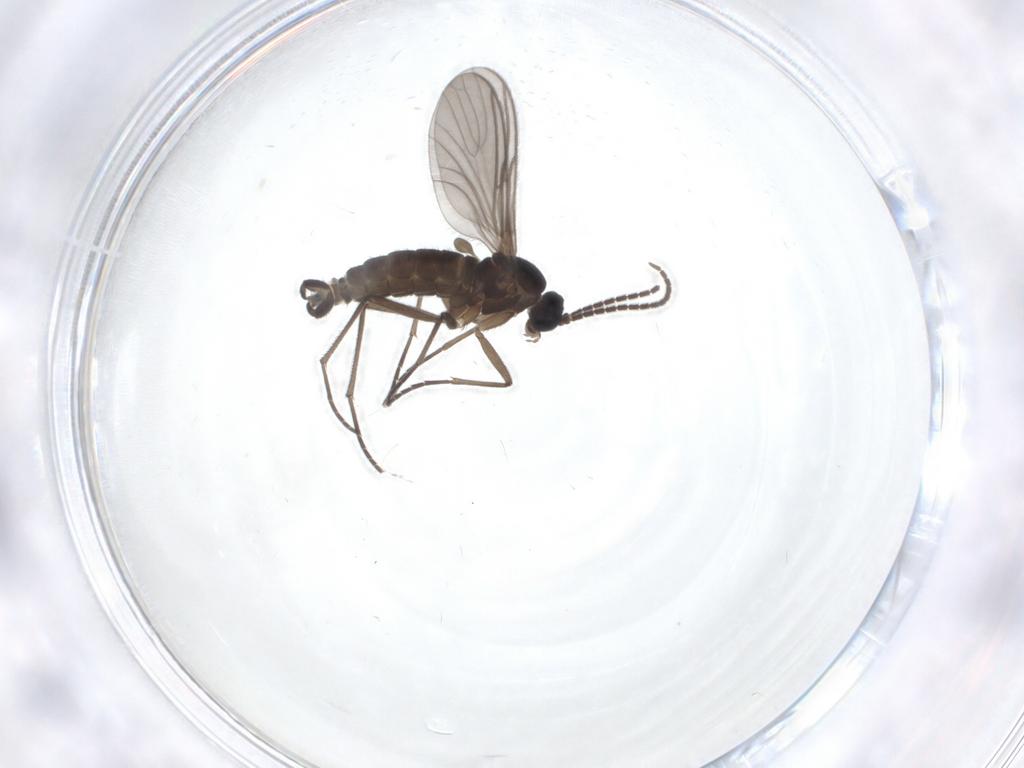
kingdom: Animalia
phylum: Arthropoda
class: Insecta
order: Diptera
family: Sciaridae
